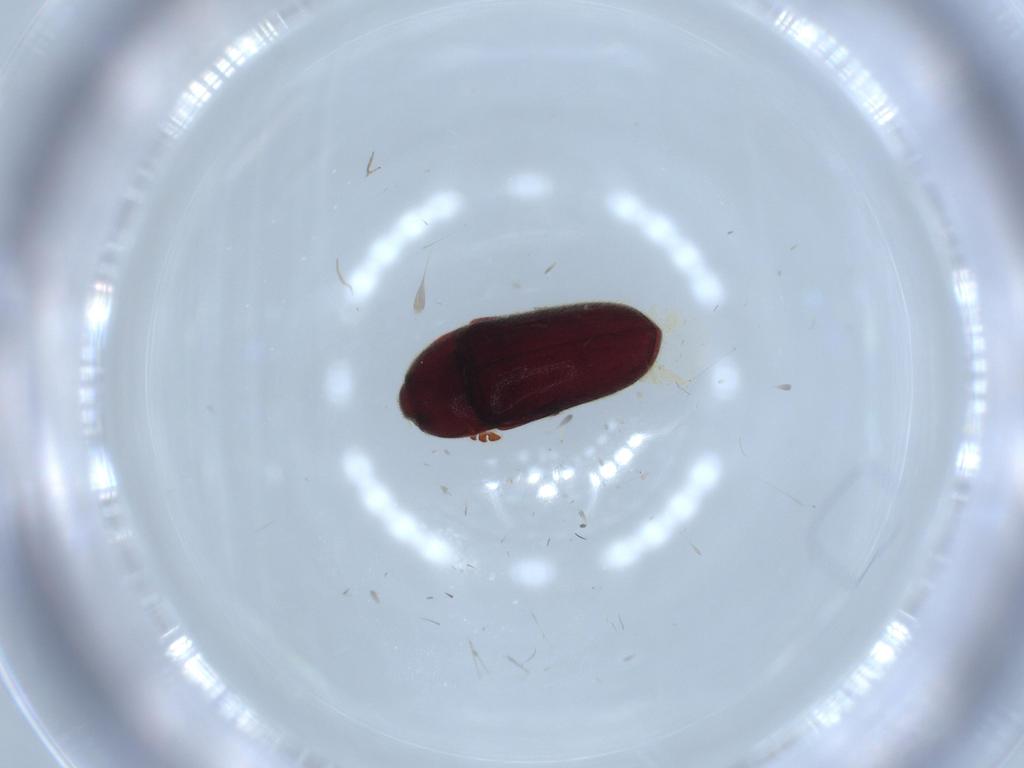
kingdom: Animalia
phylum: Arthropoda
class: Insecta
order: Coleoptera
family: Throscidae
